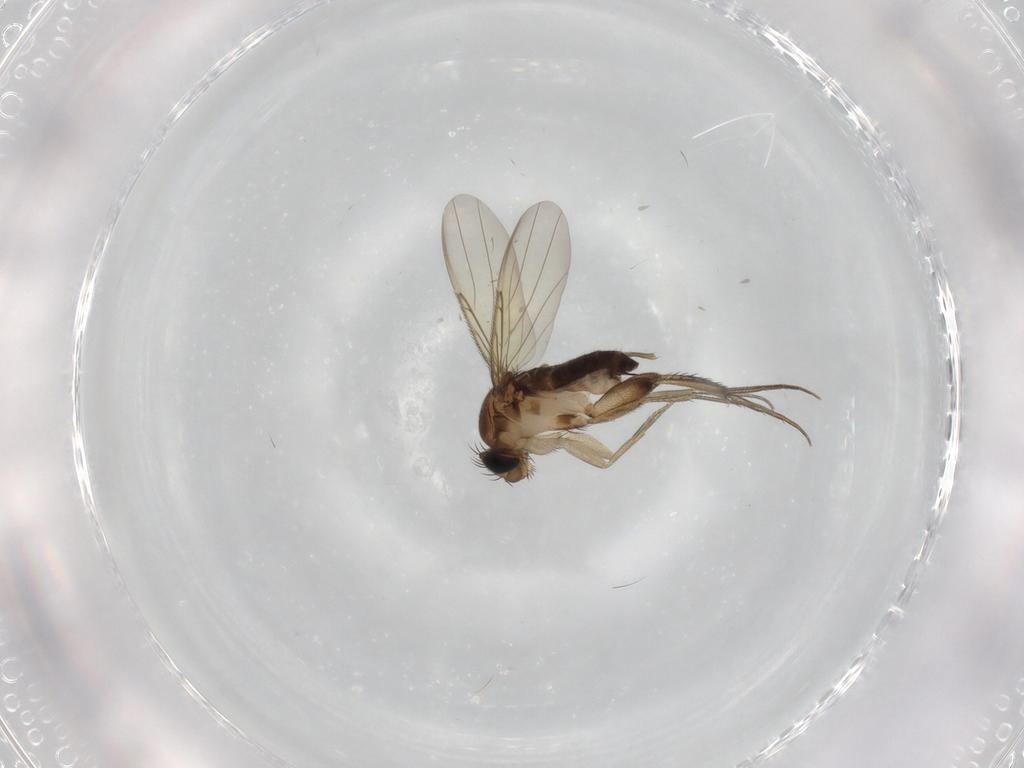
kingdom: Animalia
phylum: Arthropoda
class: Insecta
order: Diptera
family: Phoridae
